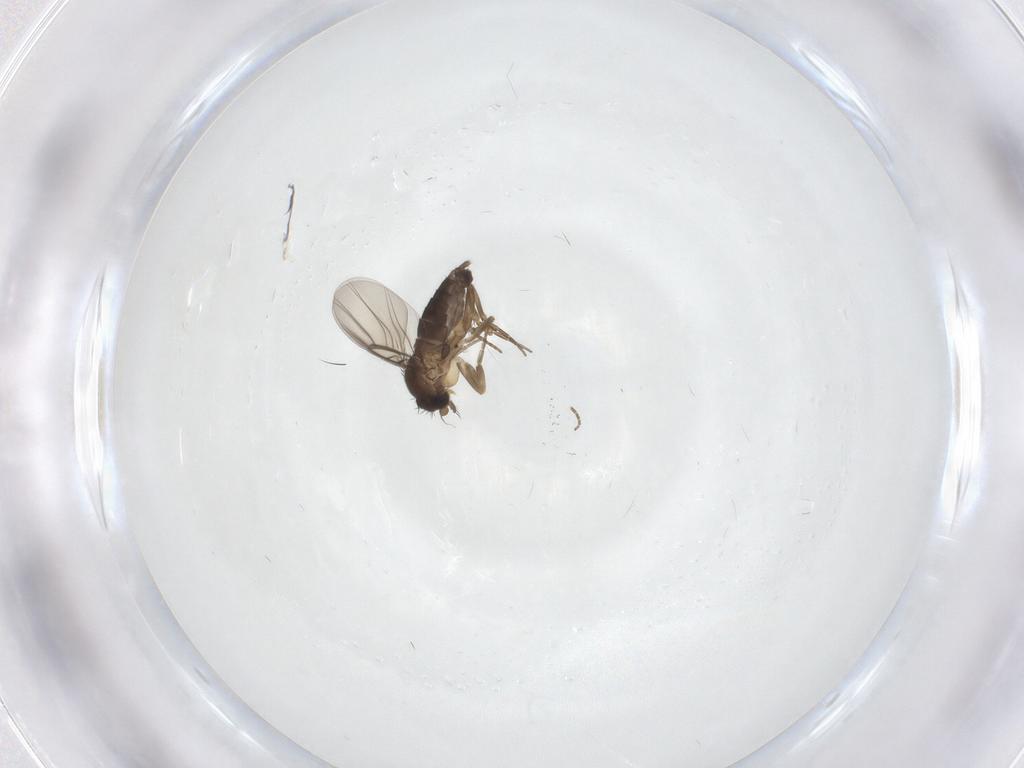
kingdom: Animalia
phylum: Arthropoda
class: Insecta
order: Diptera
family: Phoridae
